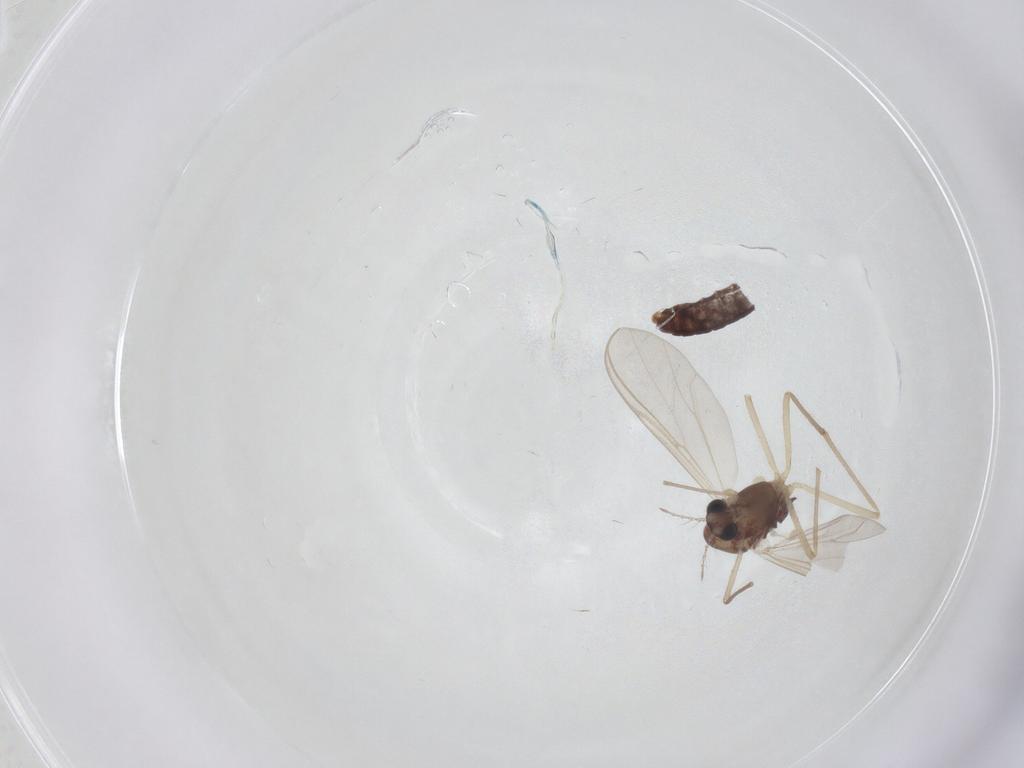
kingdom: Animalia
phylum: Arthropoda
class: Insecta
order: Diptera
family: Chironomidae
